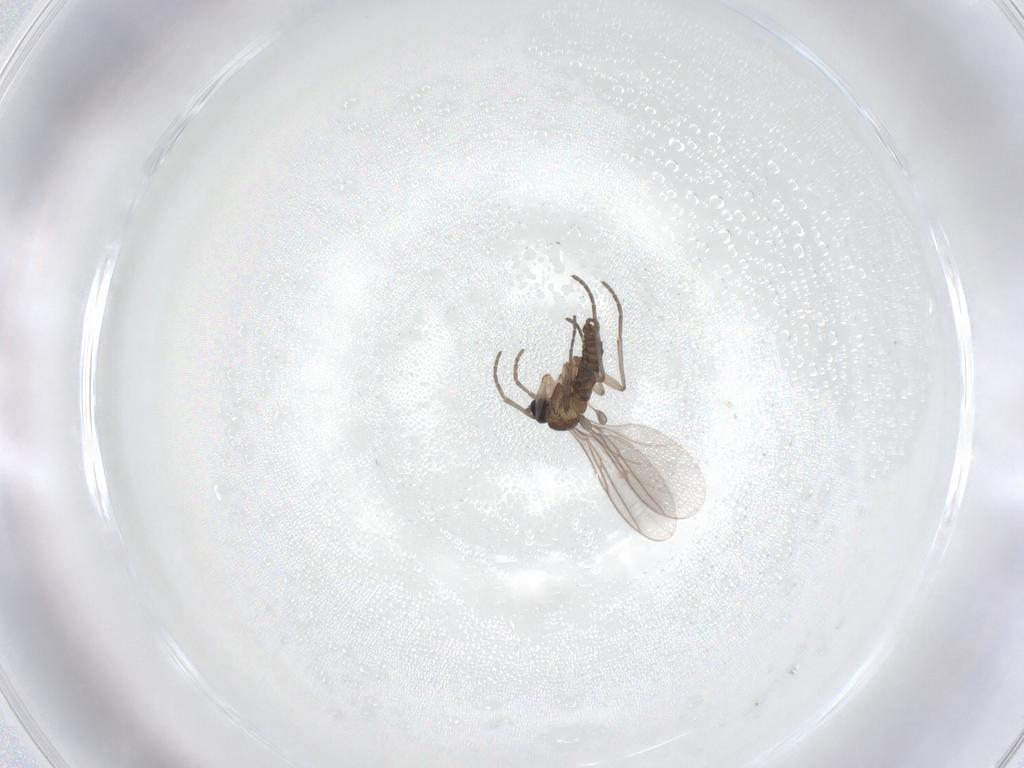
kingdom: Animalia
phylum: Arthropoda
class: Insecta
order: Diptera
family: Sciaridae
